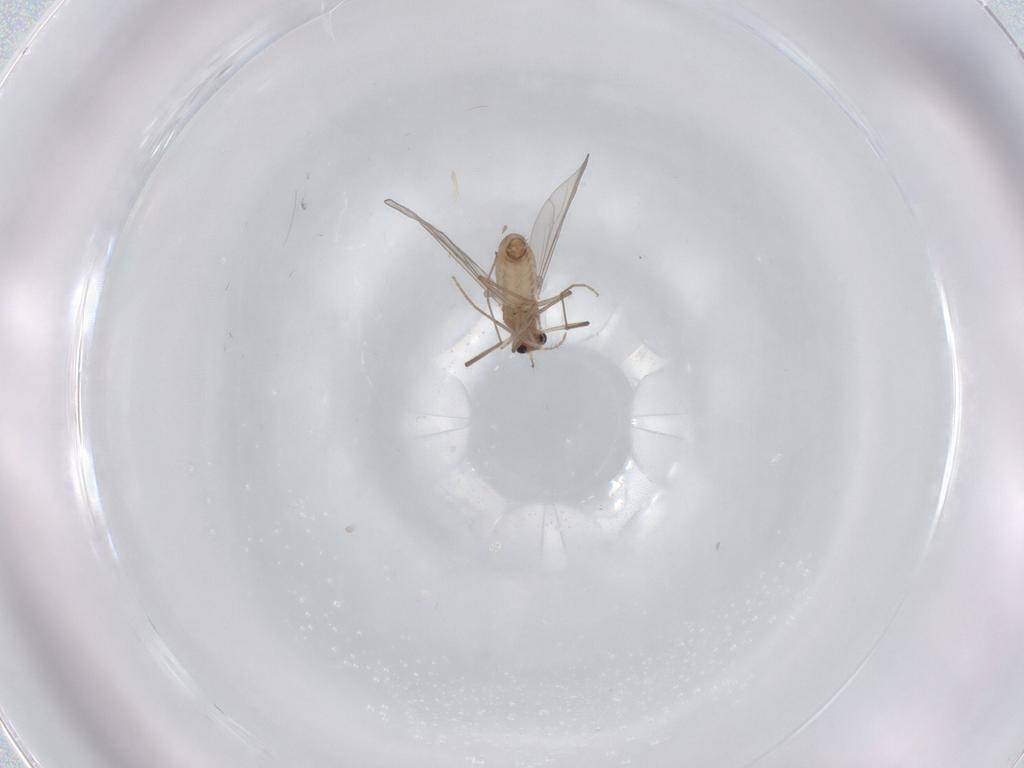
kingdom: Animalia
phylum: Arthropoda
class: Insecta
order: Diptera
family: Chironomidae
